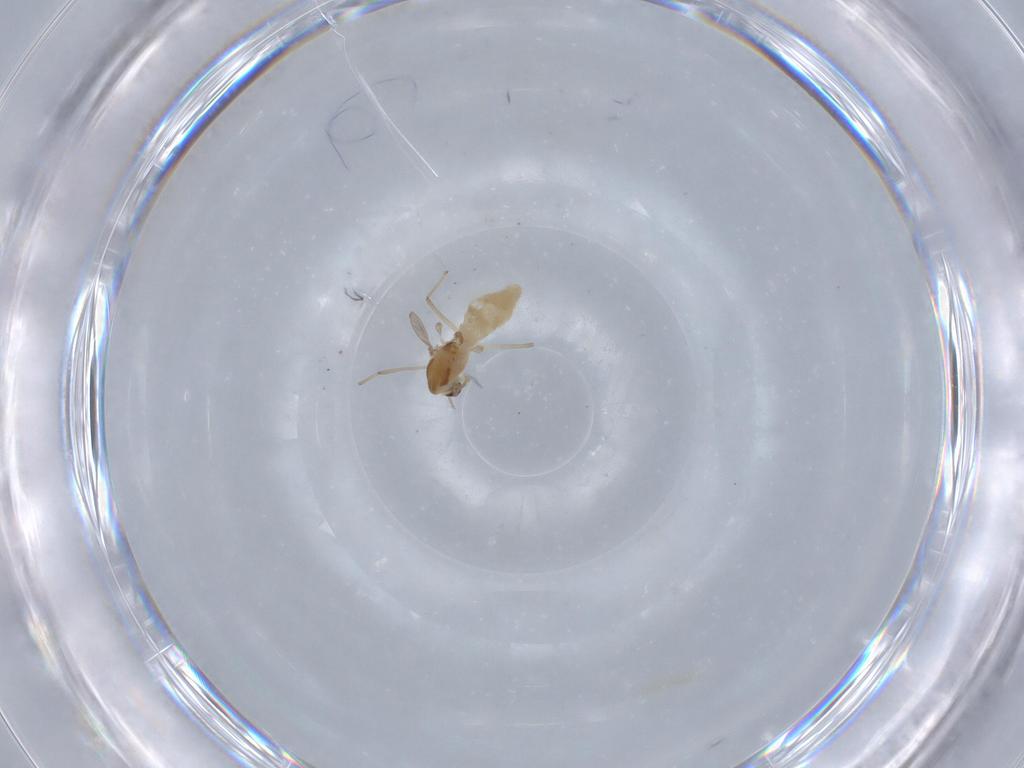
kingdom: Animalia
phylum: Arthropoda
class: Insecta
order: Diptera
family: Chironomidae
